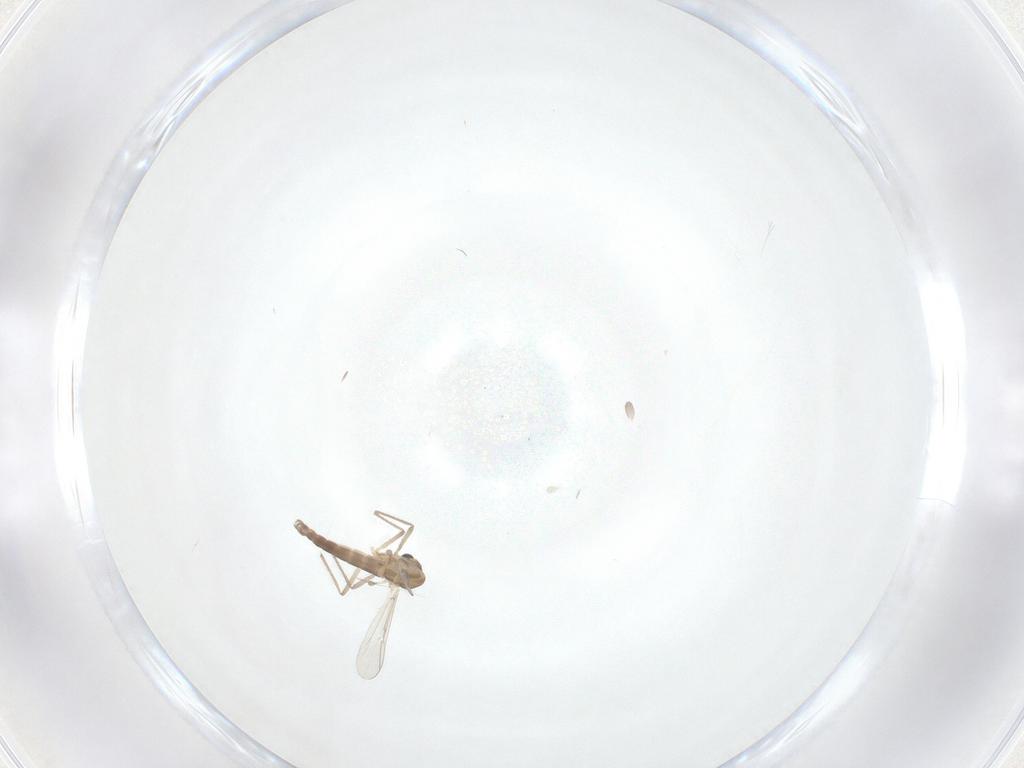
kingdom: Animalia
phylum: Arthropoda
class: Insecta
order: Diptera
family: Chironomidae
